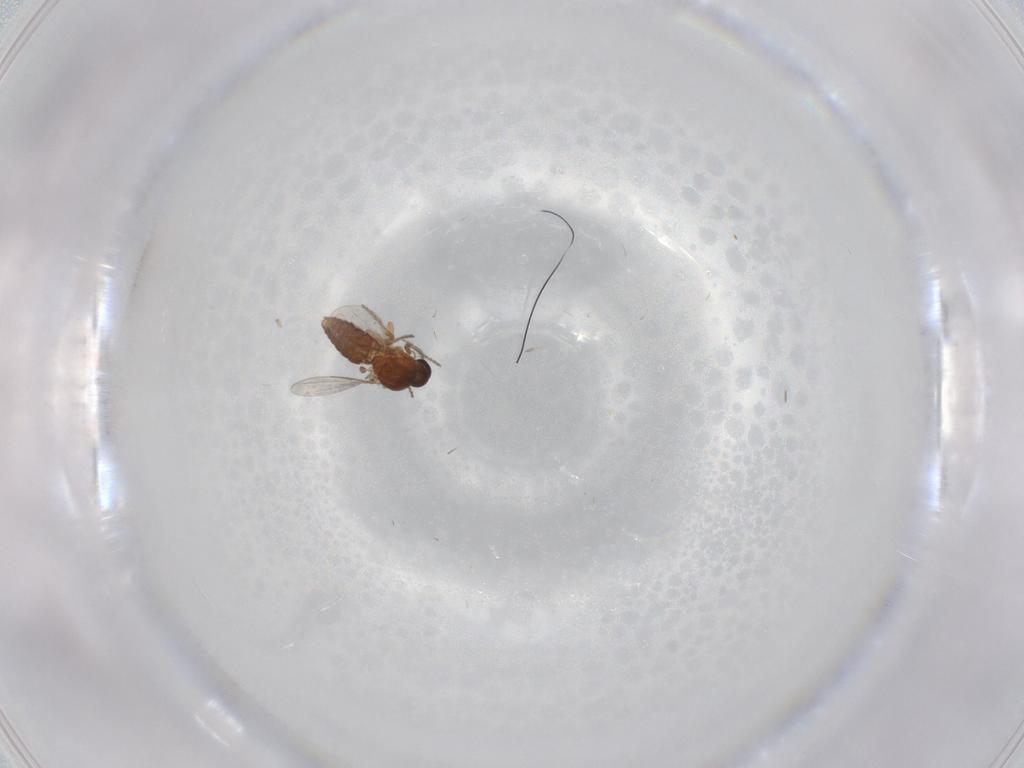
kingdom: Animalia
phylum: Arthropoda
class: Insecta
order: Diptera
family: Ceratopogonidae
